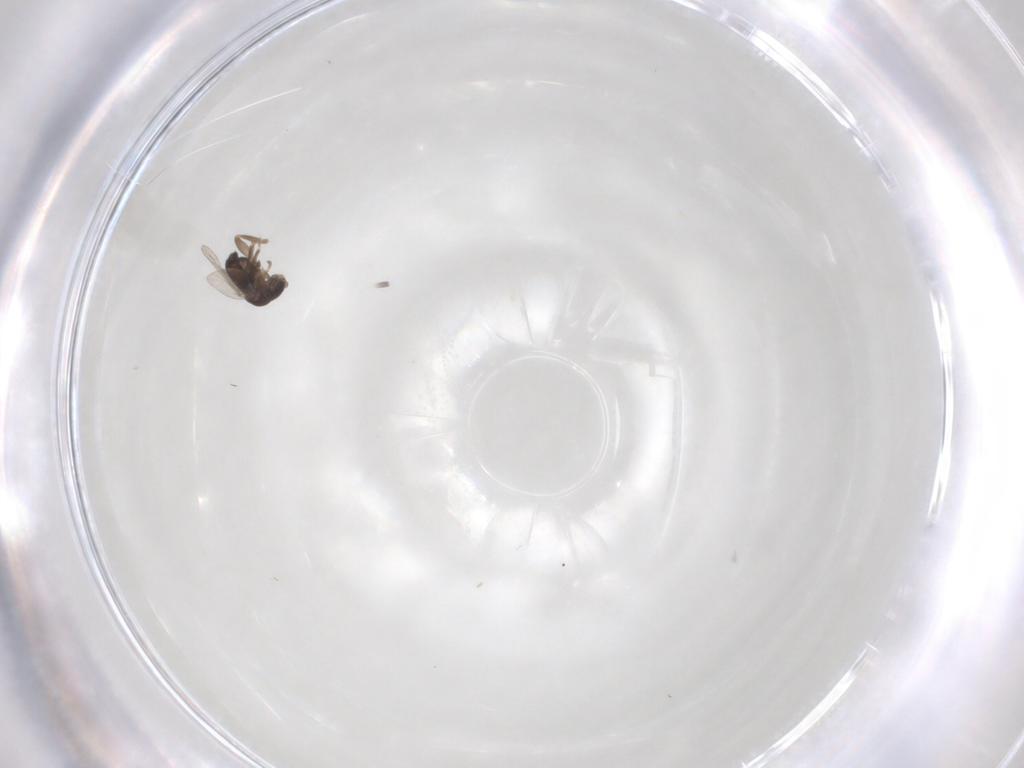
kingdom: Animalia
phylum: Arthropoda
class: Insecta
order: Diptera
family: Phoridae
